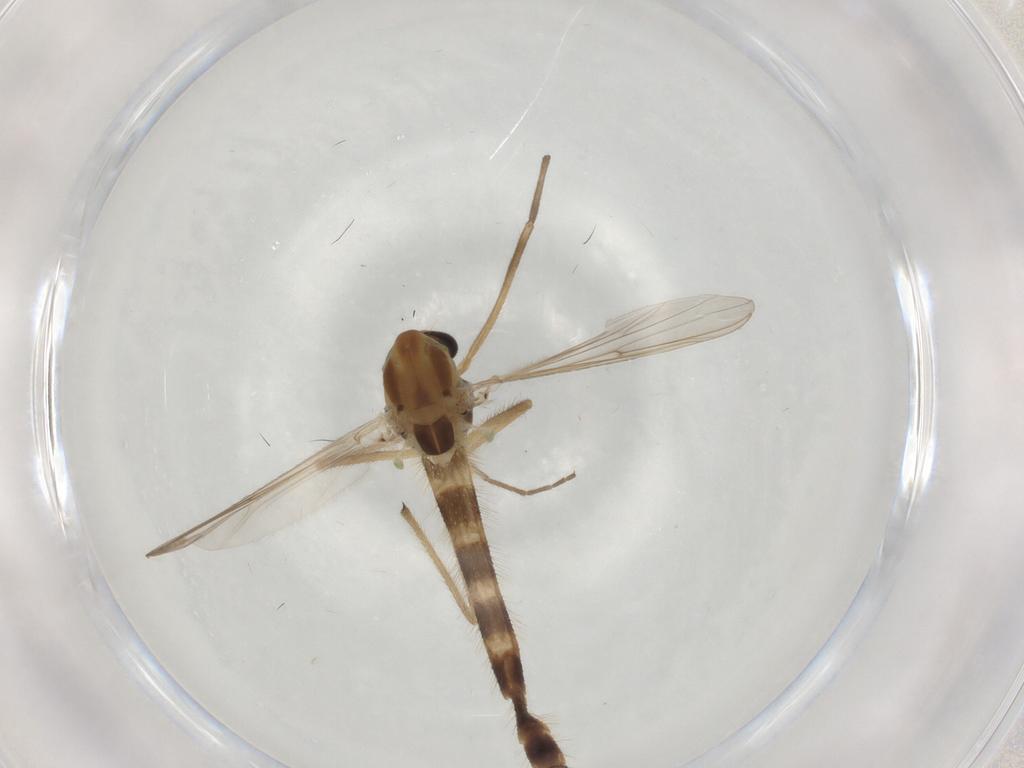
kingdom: Animalia
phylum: Arthropoda
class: Insecta
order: Diptera
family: Chironomidae
